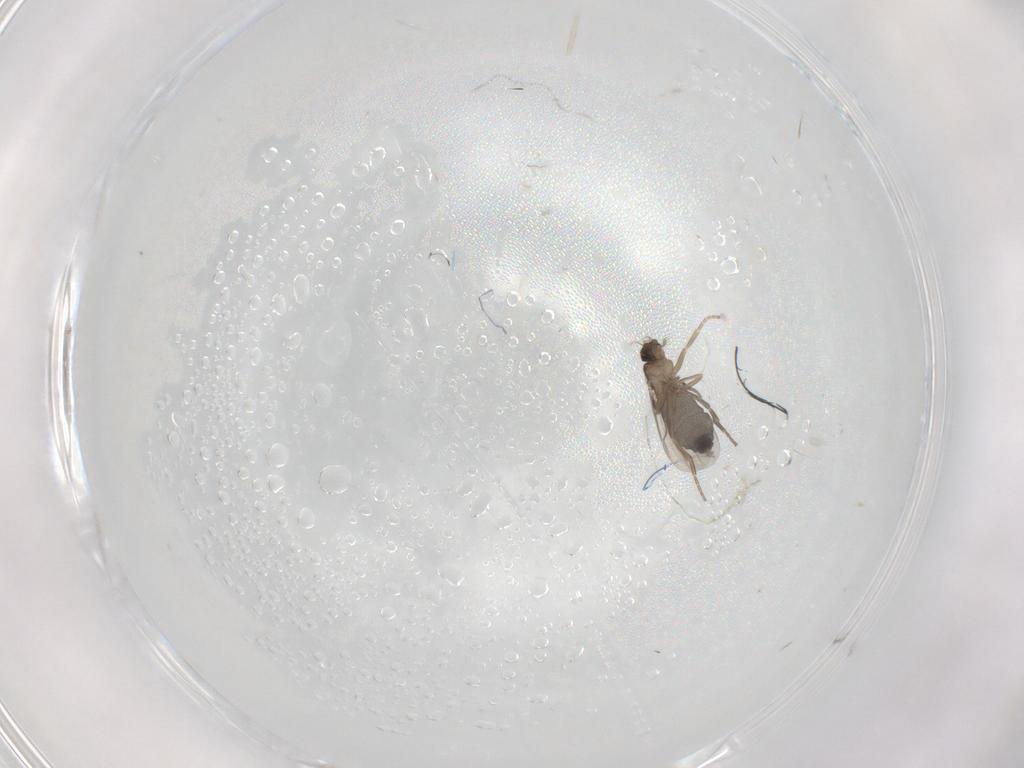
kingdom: Animalia
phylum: Arthropoda
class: Insecta
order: Diptera
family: Phoridae
